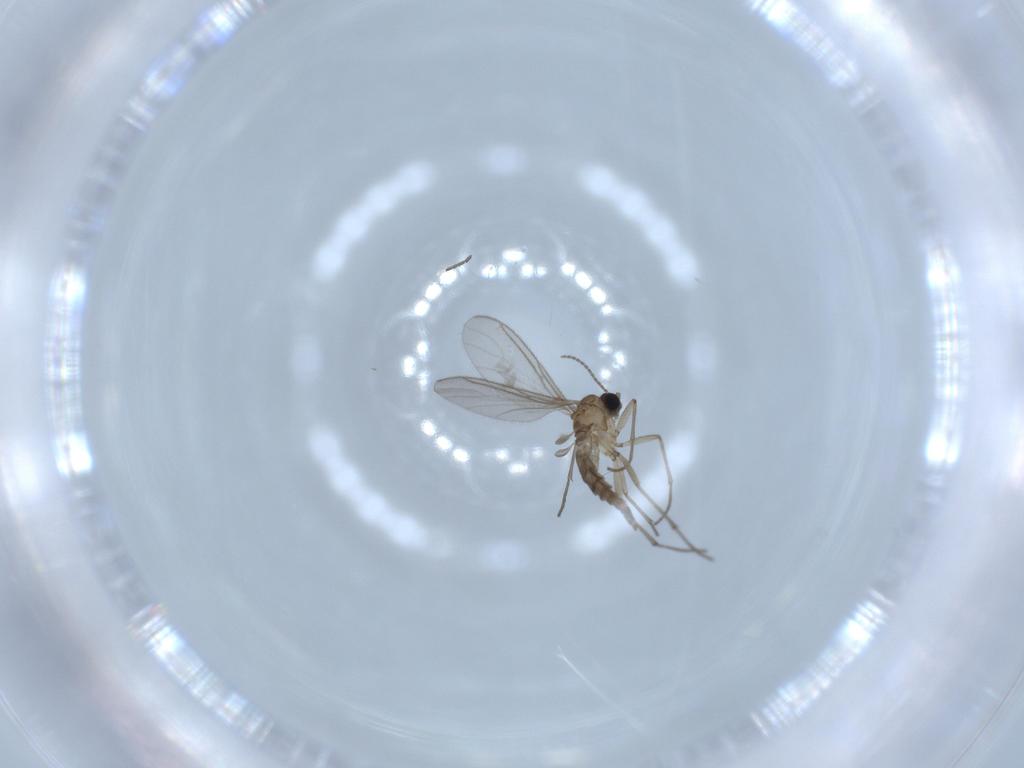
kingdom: Animalia
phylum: Arthropoda
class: Insecta
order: Diptera
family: Sciaridae
